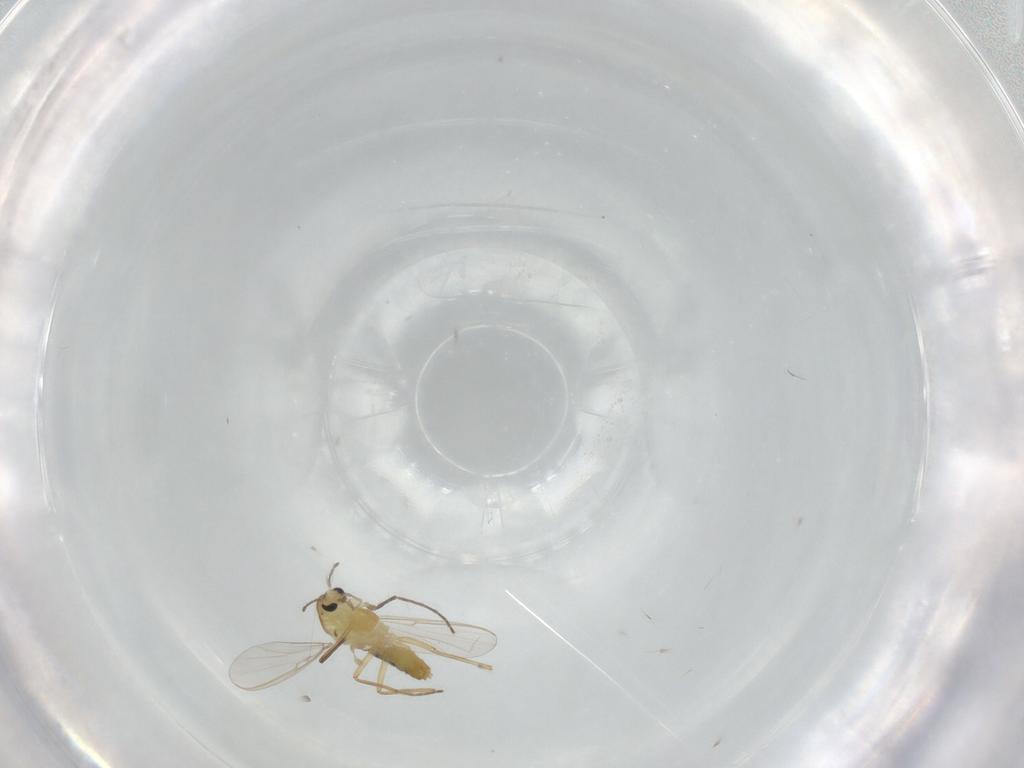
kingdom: Animalia
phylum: Arthropoda
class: Insecta
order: Diptera
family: Chironomidae
